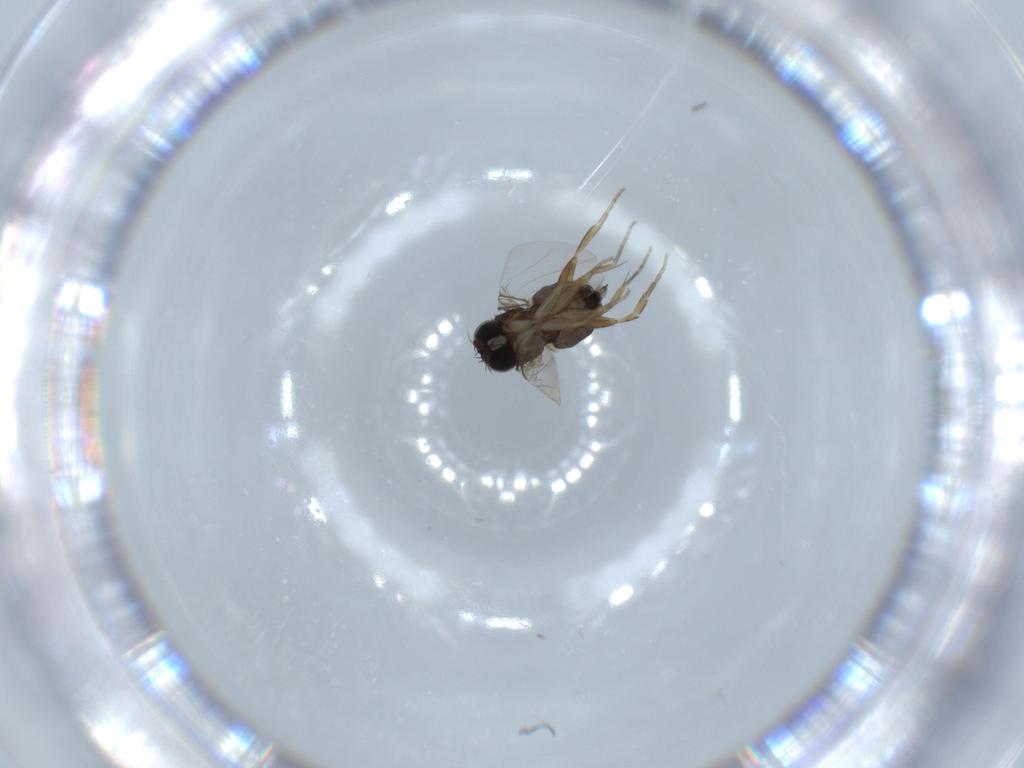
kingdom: Animalia
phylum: Arthropoda
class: Insecta
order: Diptera
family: Phoridae
